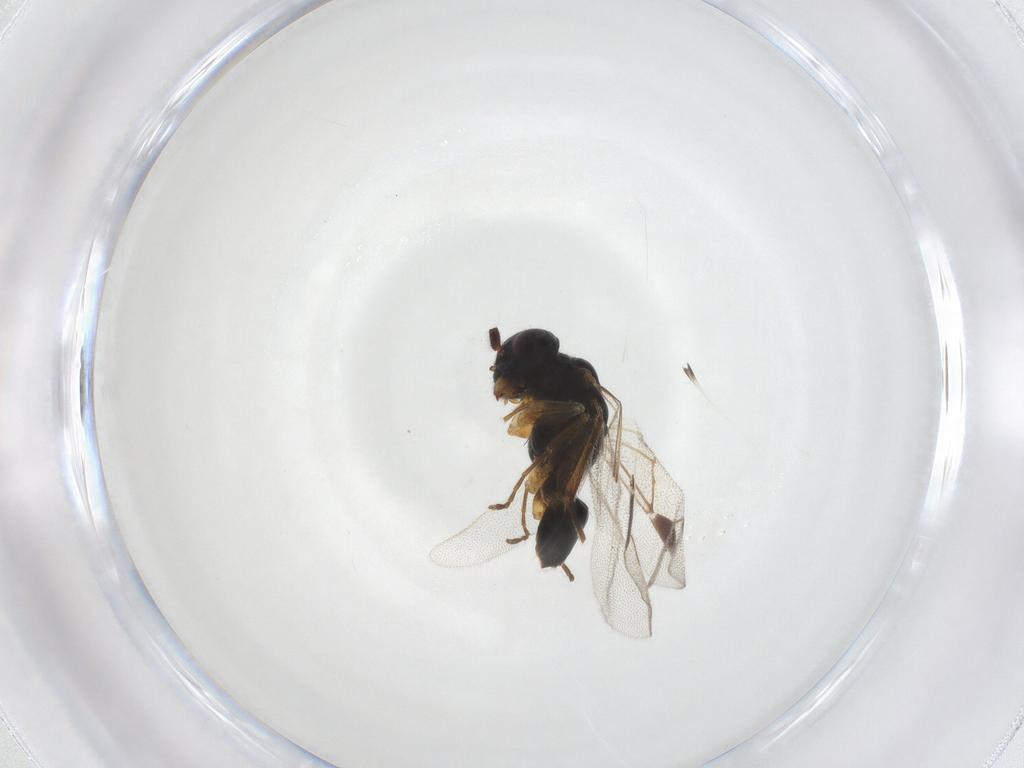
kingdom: Animalia
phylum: Arthropoda
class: Insecta
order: Hymenoptera
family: Dryinidae
